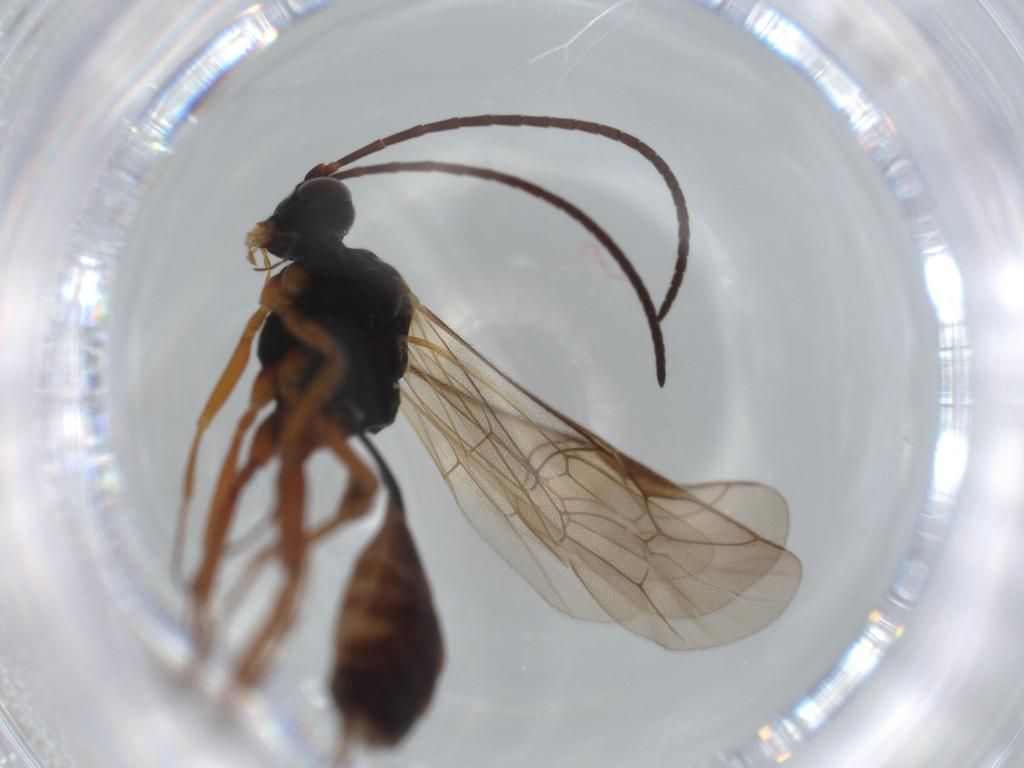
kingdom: Animalia
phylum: Arthropoda
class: Insecta
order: Hymenoptera
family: Ichneumonidae
